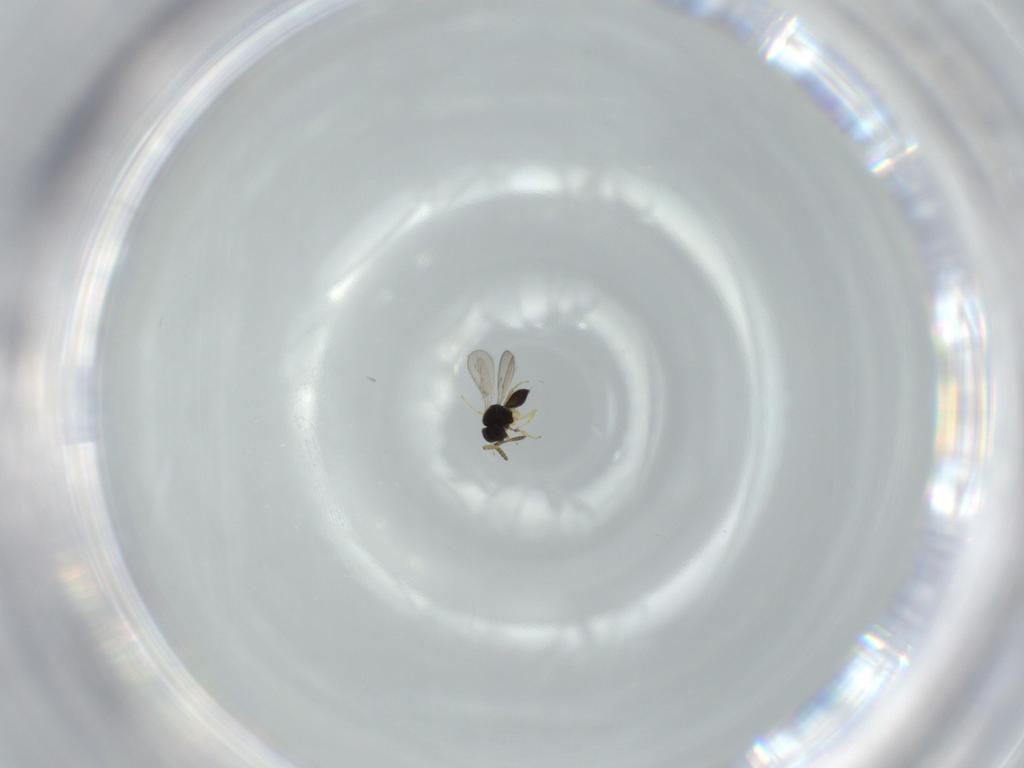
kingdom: Animalia
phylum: Arthropoda
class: Insecta
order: Hymenoptera
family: Scelionidae
